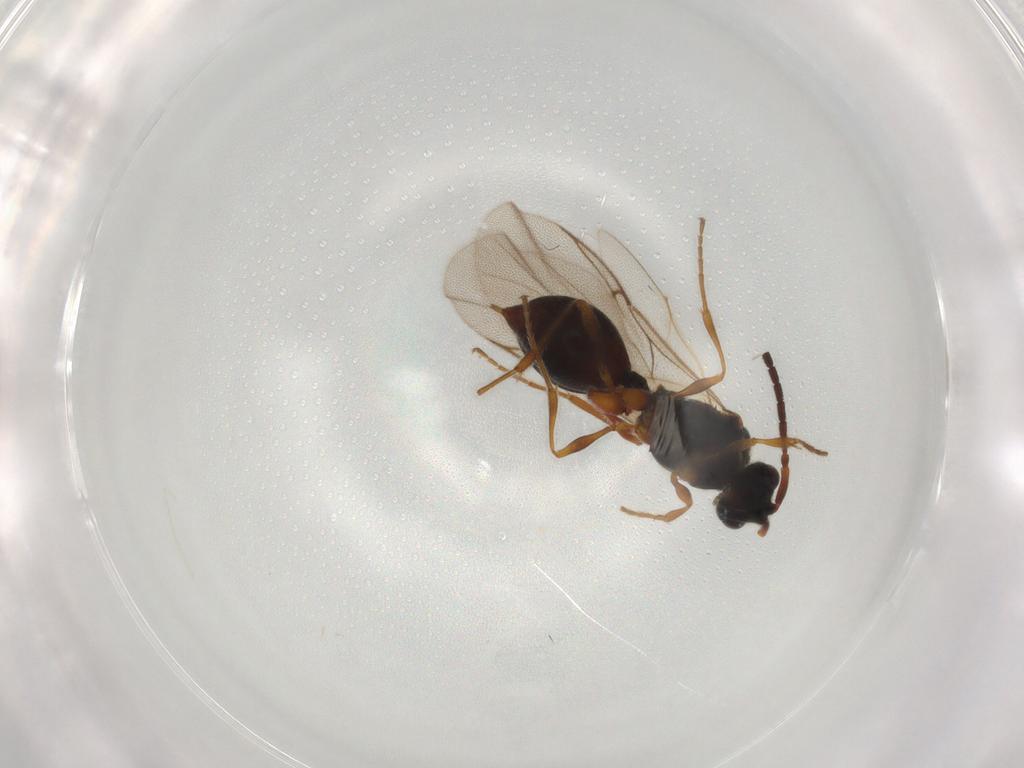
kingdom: Animalia
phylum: Arthropoda
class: Insecta
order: Hymenoptera
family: Diapriidae
